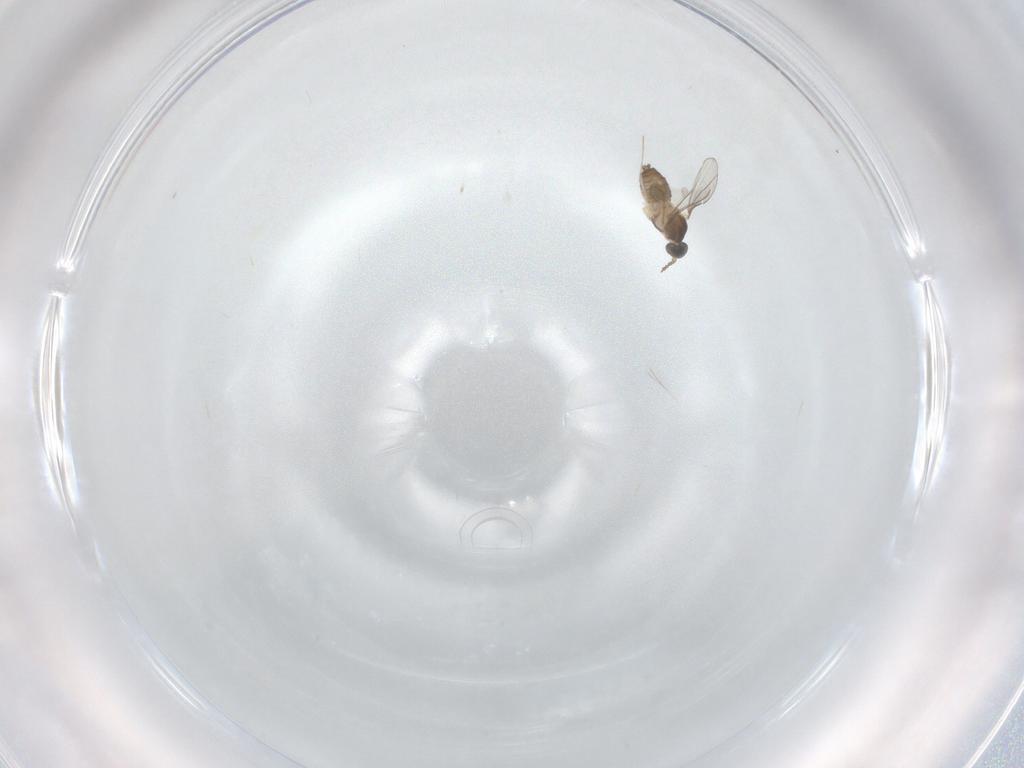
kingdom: Animalia
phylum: Arthropoda
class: Insecta
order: Diptera
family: Cecidomyiidae
